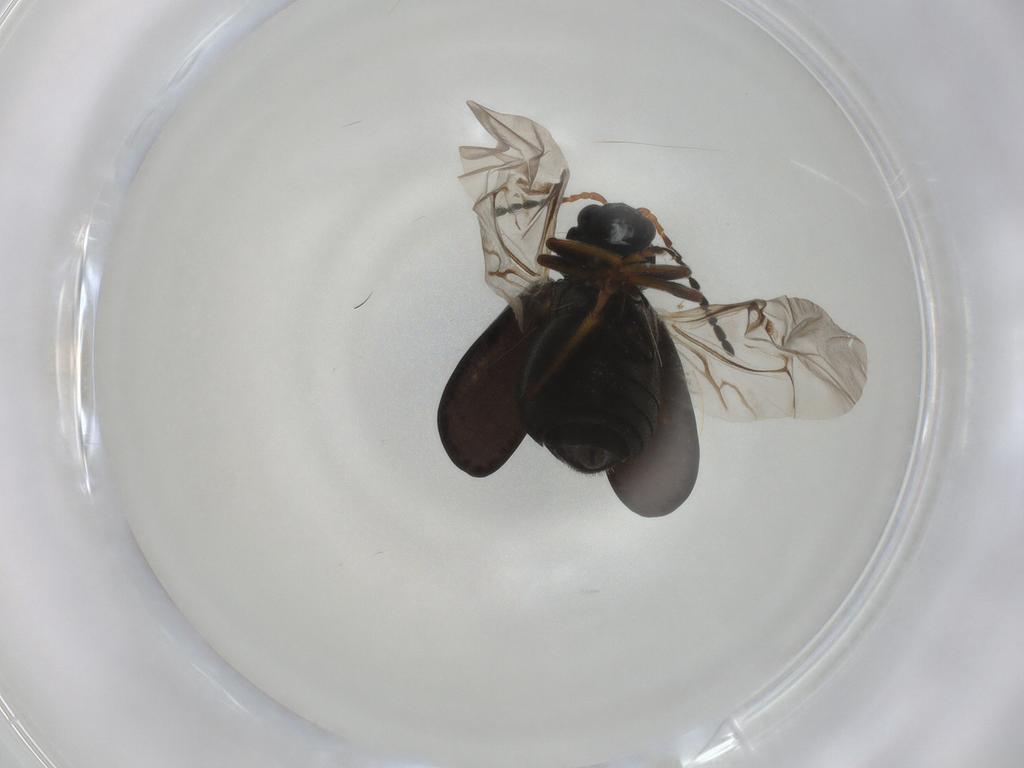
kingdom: Animalia
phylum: Arthropoda
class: Insecta
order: Coleoptera
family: Chrysomelidae
